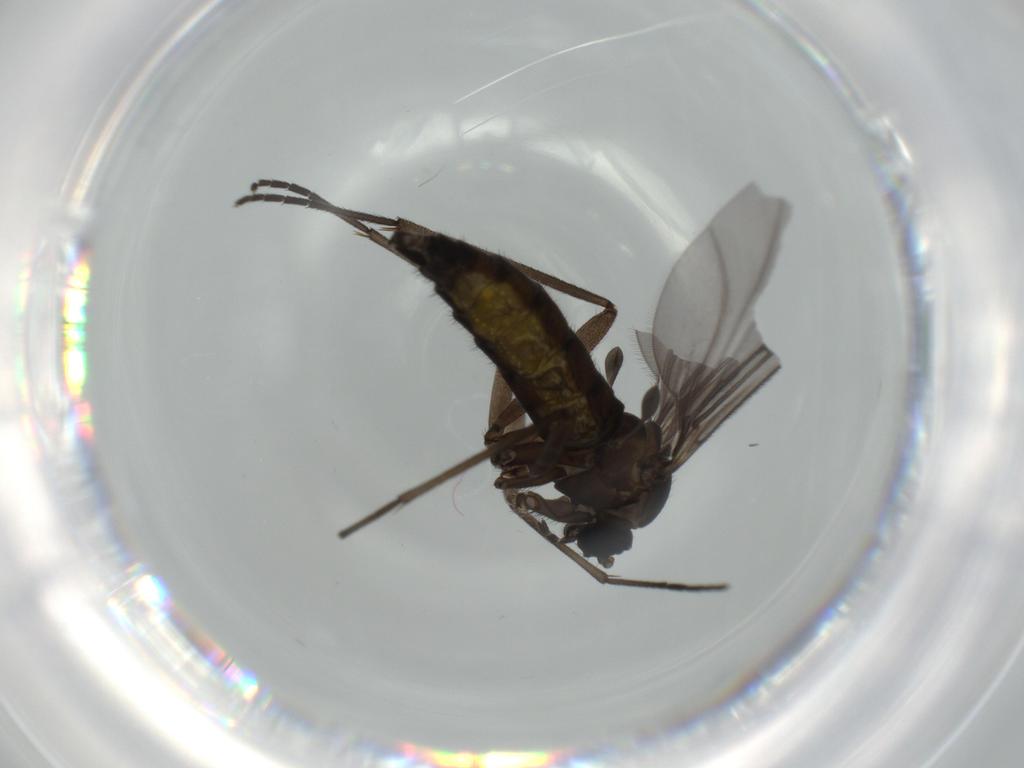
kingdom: Animalia
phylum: Arthropoda
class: Insecta
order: Diptera
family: Sciaridae
